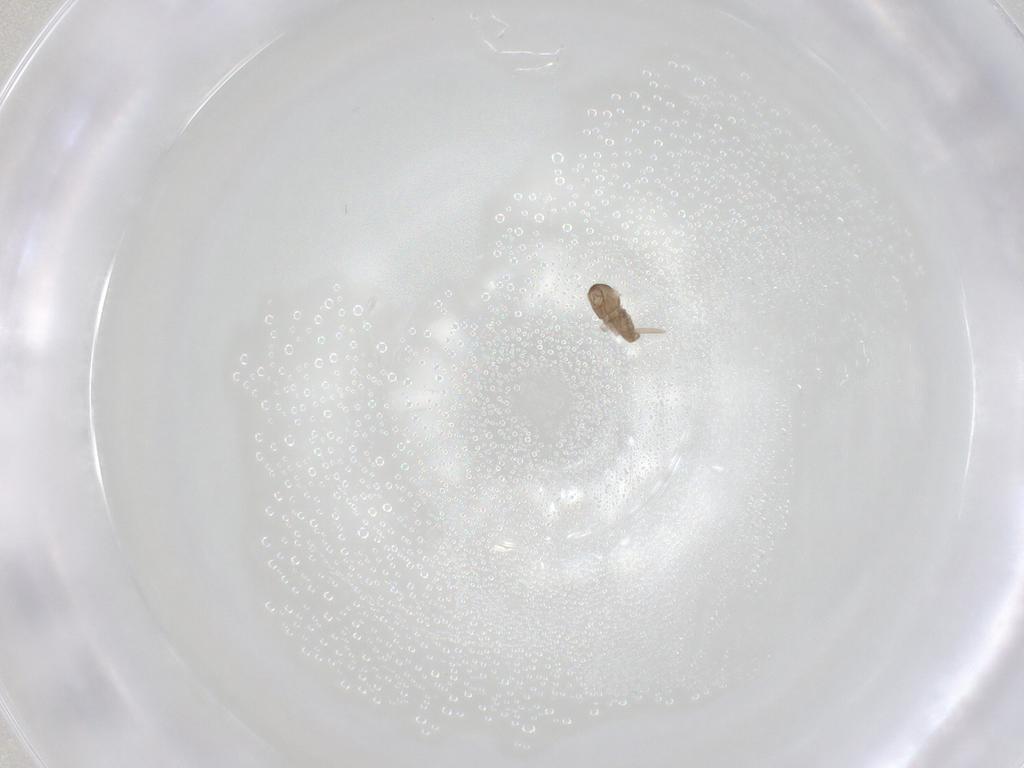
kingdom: Animalia
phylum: Arthropoda
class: Insecta
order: Diptera
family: Cecidomyiidae
